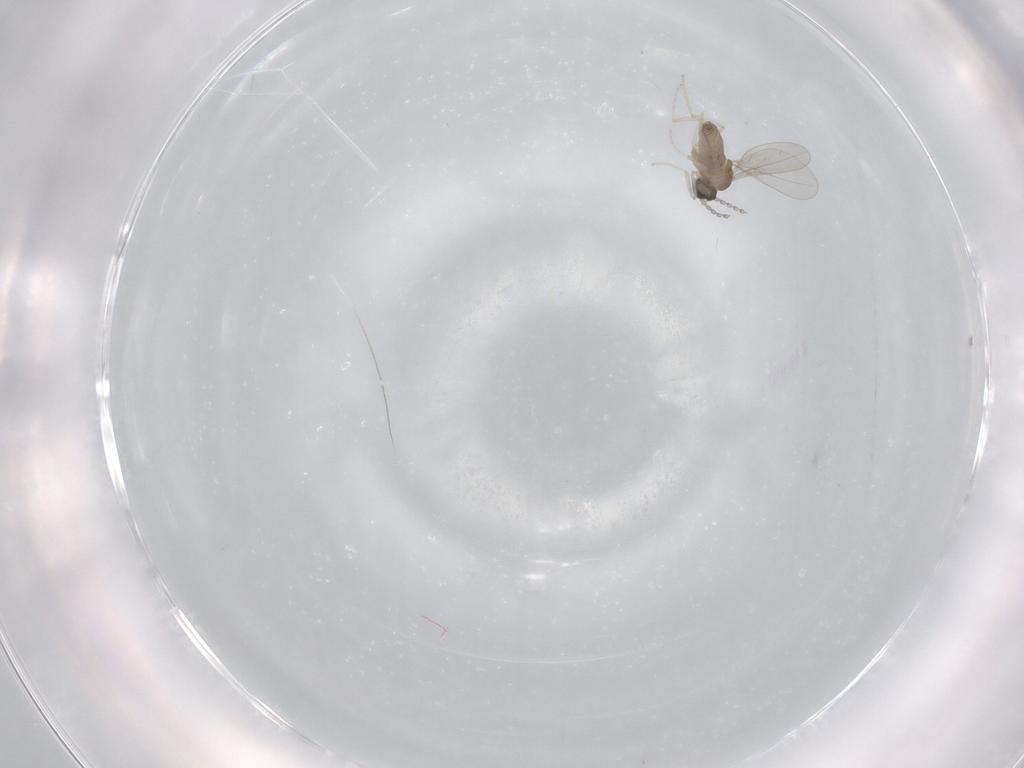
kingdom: Animalia
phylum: Arthropoda
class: Insecta
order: Diptera
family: Cecidomyiidae
